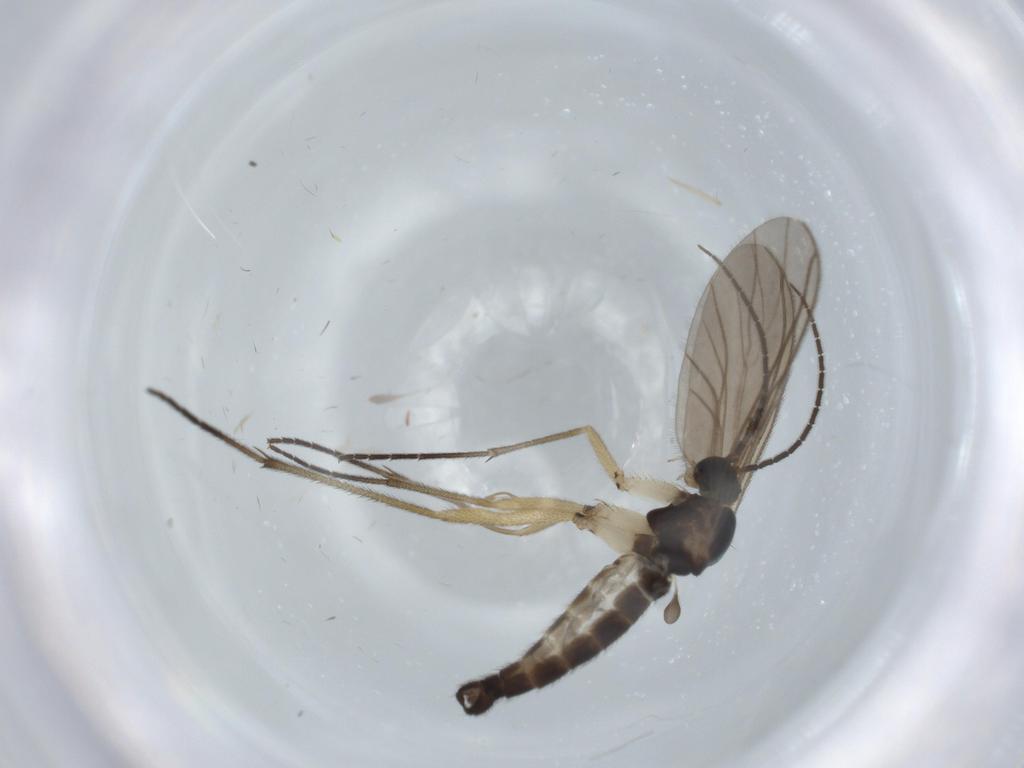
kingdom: Animalia
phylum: Arthropoda
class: Insecta
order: Diptera
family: Sciaridae
